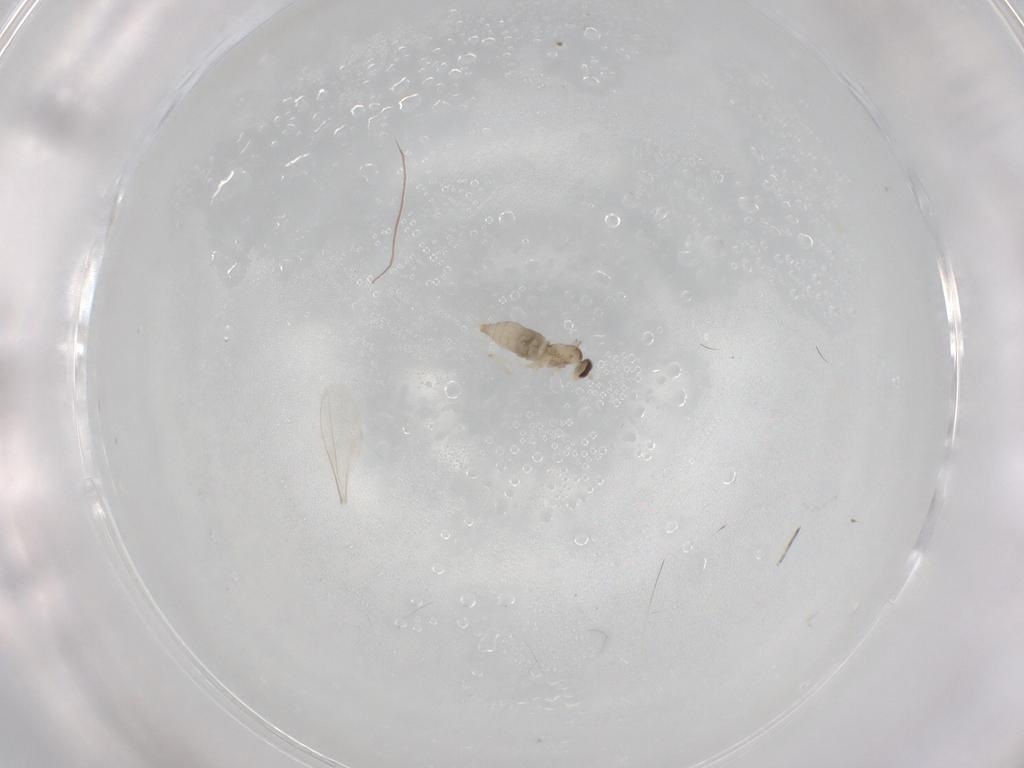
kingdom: Animalia
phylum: Arthropoda
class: Insecta
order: Diptera
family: Cecidomyiidae
